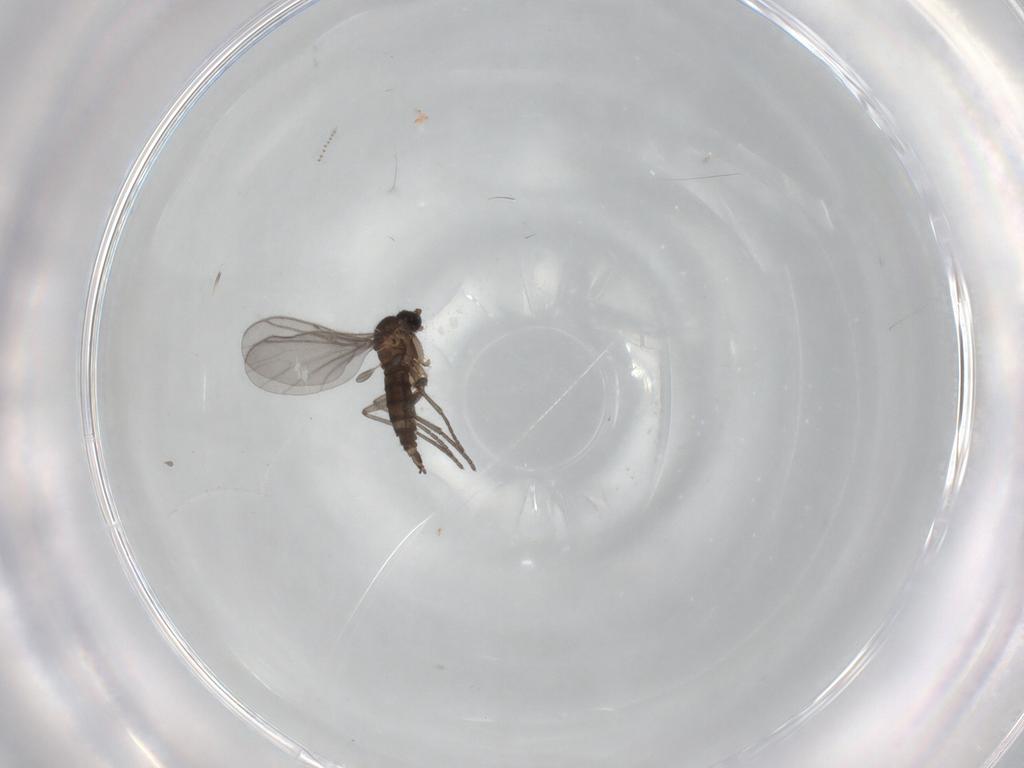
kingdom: Animalia
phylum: Arthropoda
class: Insecta
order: Diptera
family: Cecidomyiidae
